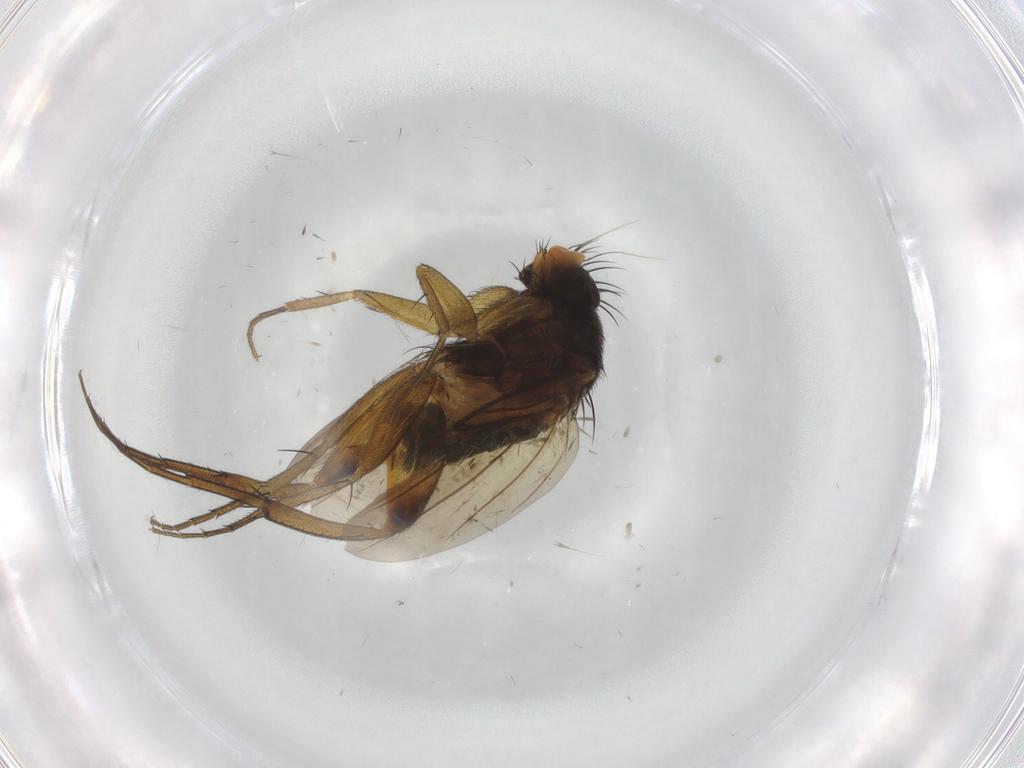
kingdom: Animalia
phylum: Arthropoda
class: Insecta
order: Diptera
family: Phoridae
